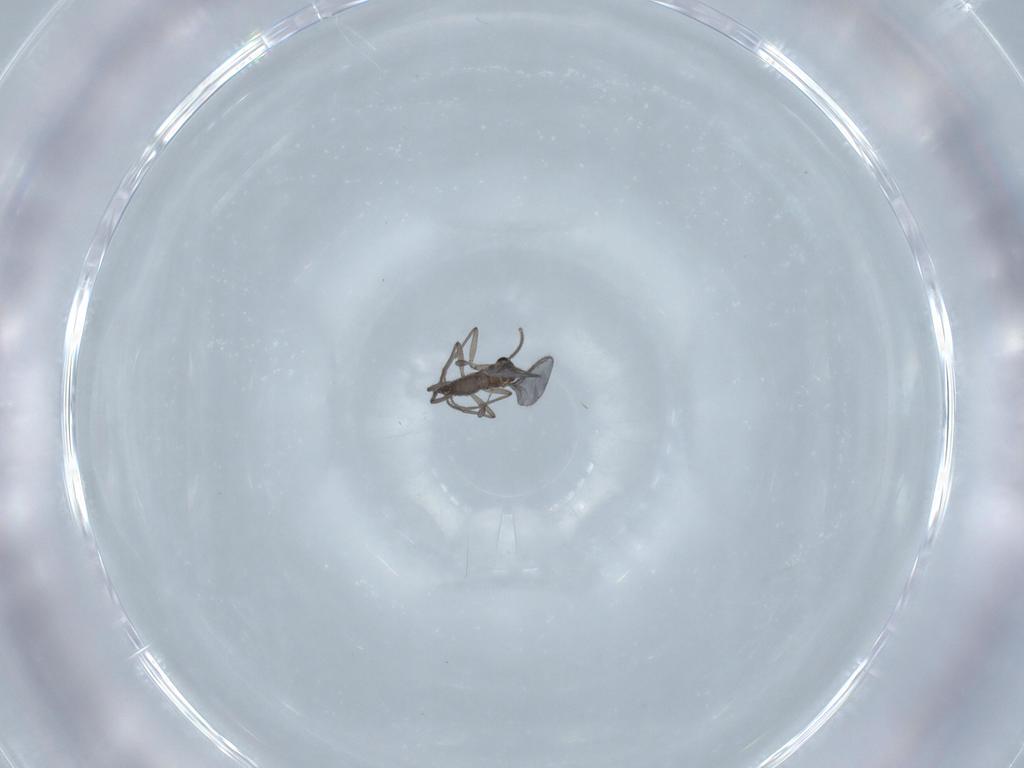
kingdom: Animalia
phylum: Arthropoda
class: Insecta
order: Diptera
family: Sciaridae
